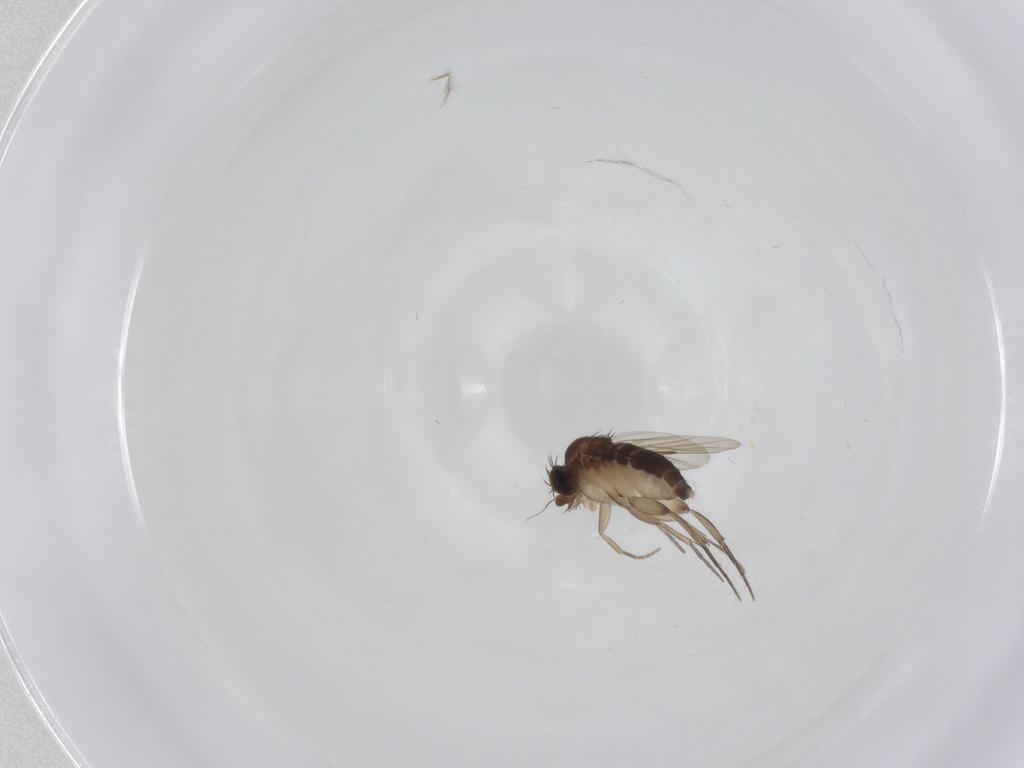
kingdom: Animalia
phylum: Arthropoda
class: Insecta
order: Diptera
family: Phoridae
